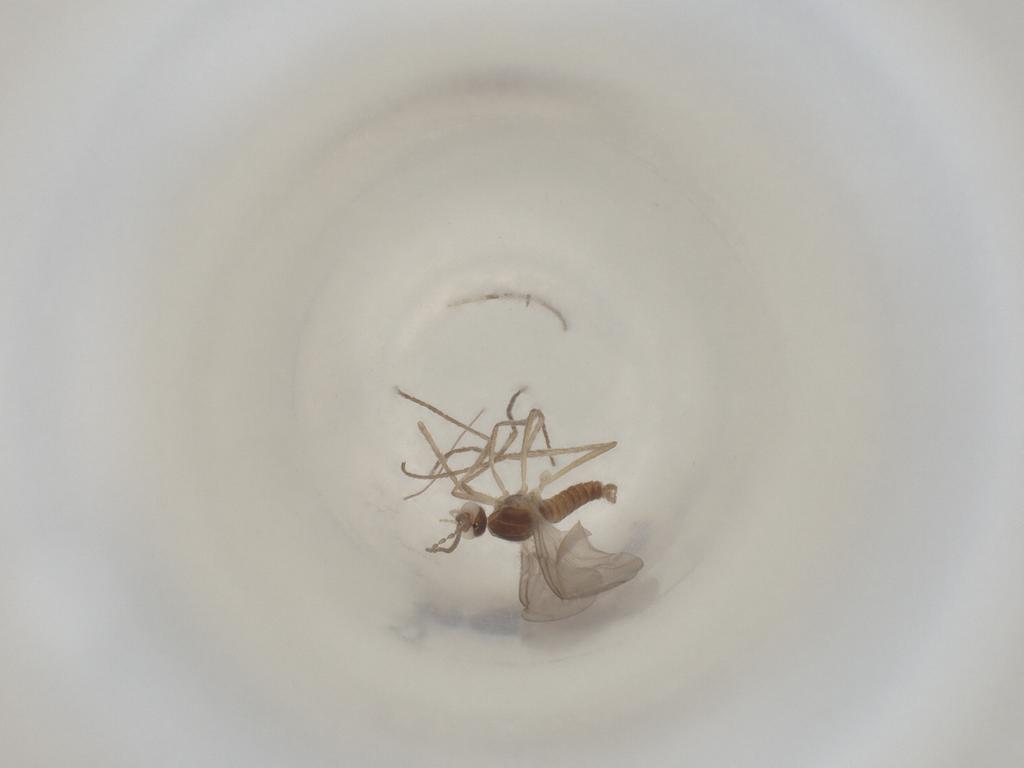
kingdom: Animalia
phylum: Arthropoda
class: Insecta
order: Diptera
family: Cecidomyiidae
